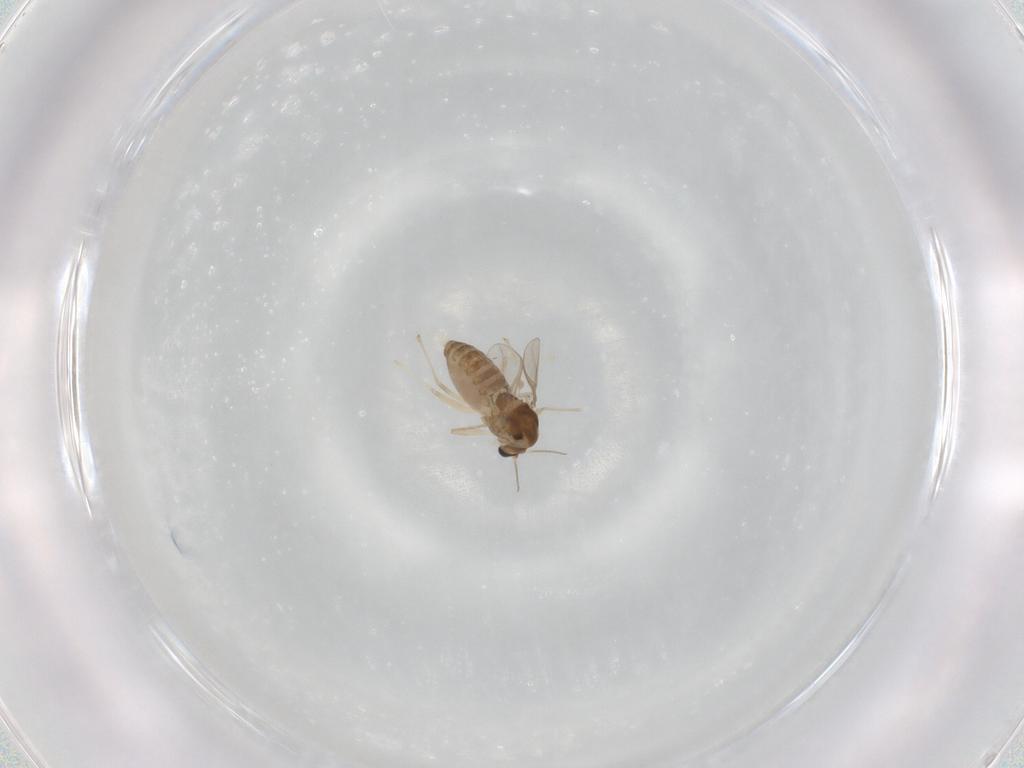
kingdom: Animalia
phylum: Arthropoda
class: Insecta
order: Diptera
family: Chironomidae
